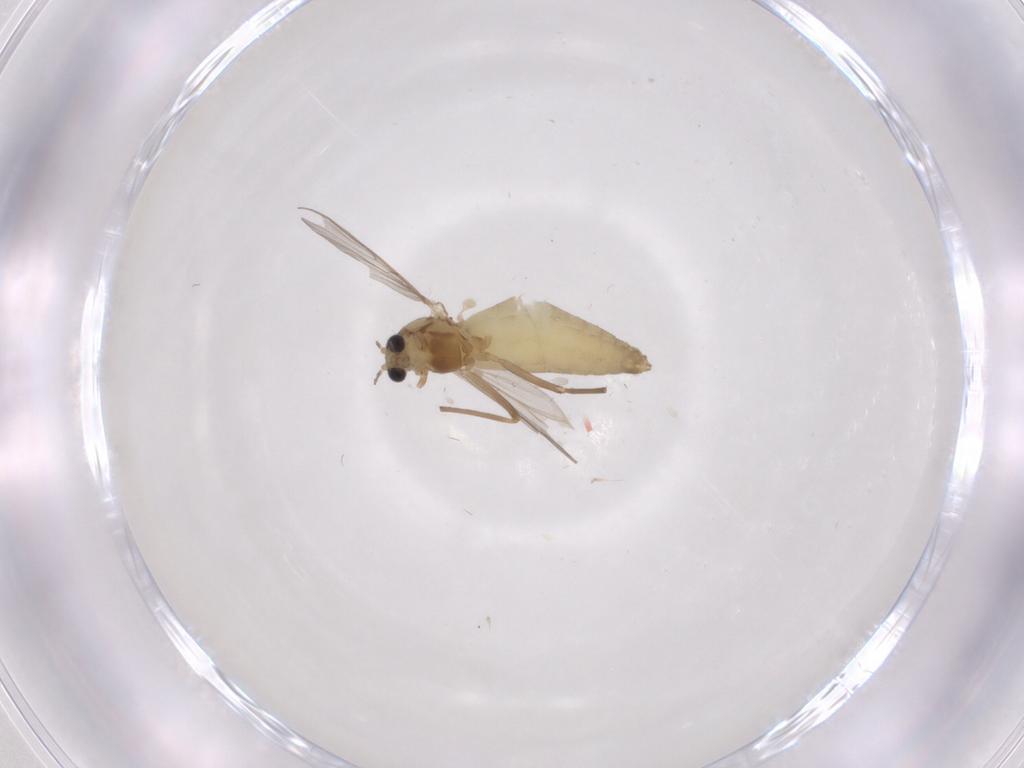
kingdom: Animalia
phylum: Arthropoda
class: Insecta
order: Diptera
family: Chironomidae
